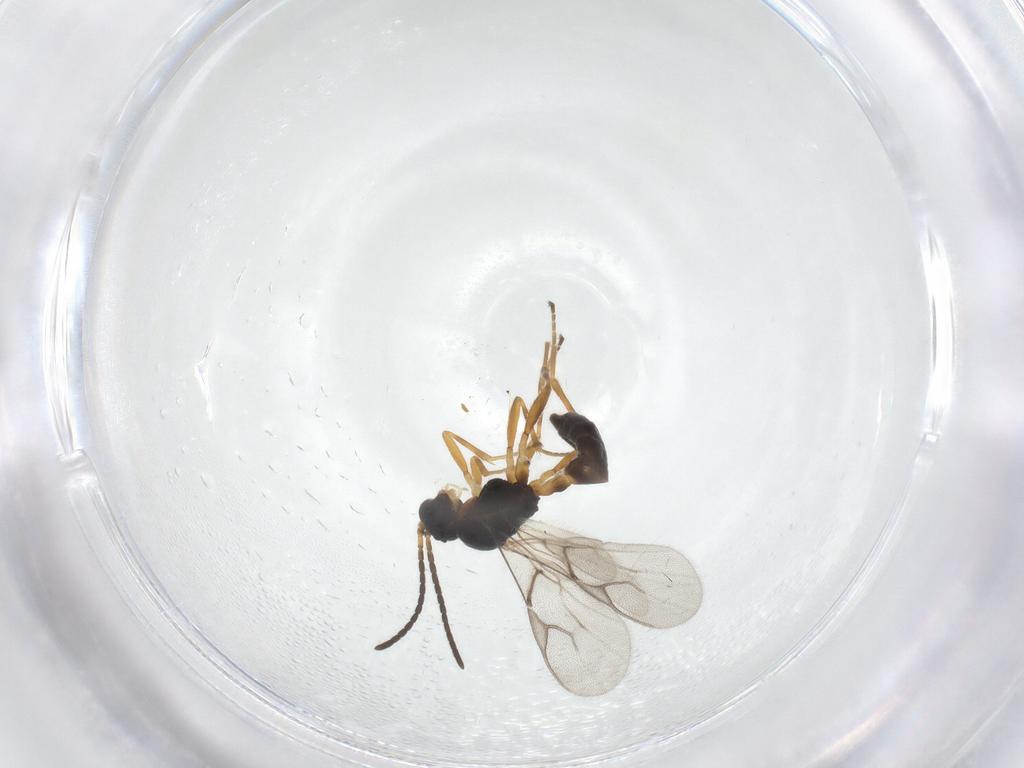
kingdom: Animalia
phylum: Arthropoda
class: Insecta
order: Hymenoptera
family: Braconidae
